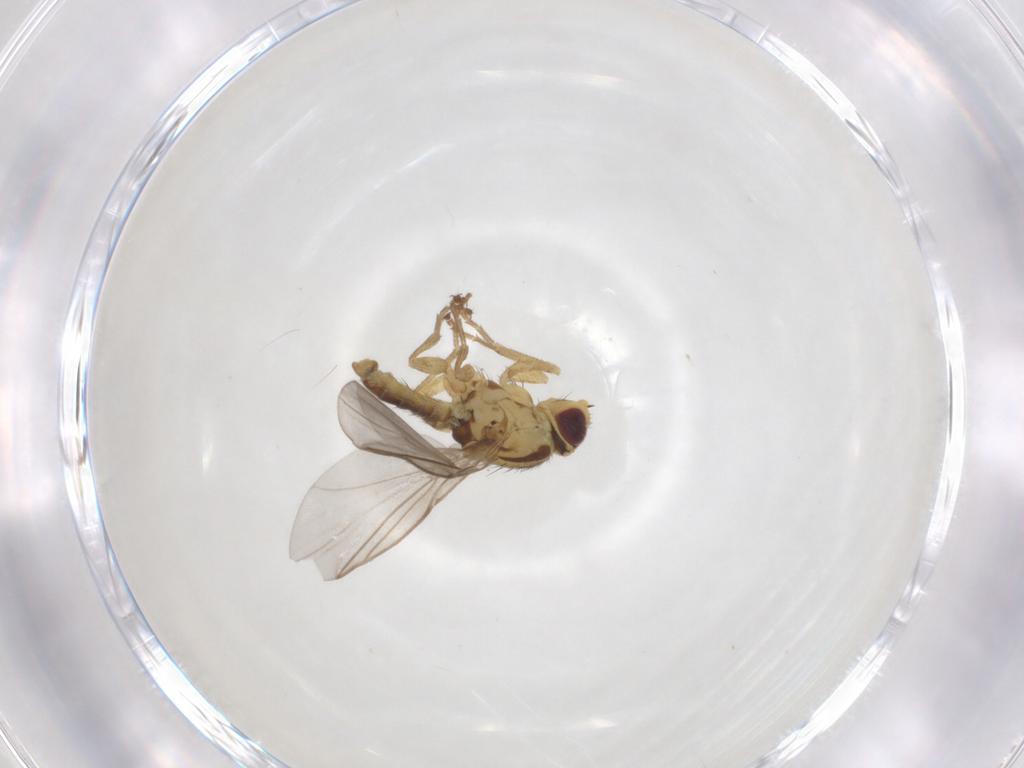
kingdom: Animalia
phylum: Arthropoda
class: Insecta
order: Diptera
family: Agromyzidae
